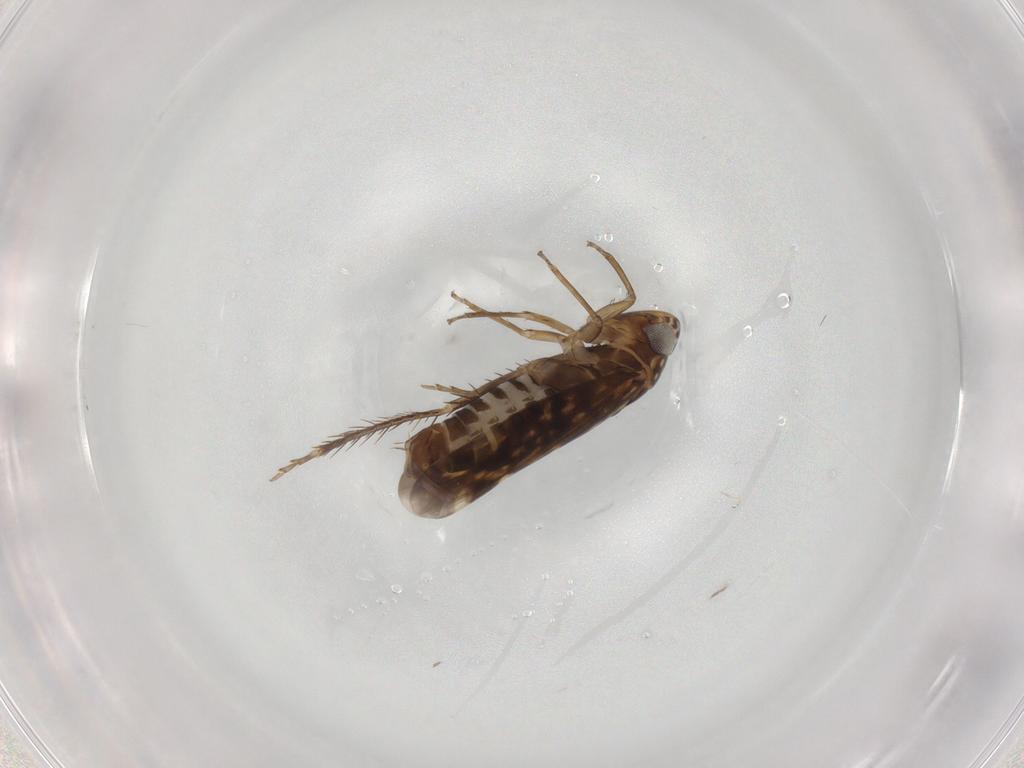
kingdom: Animalia
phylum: Arthropoda
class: Insecta
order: Hemiptera
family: Cicadellidae
